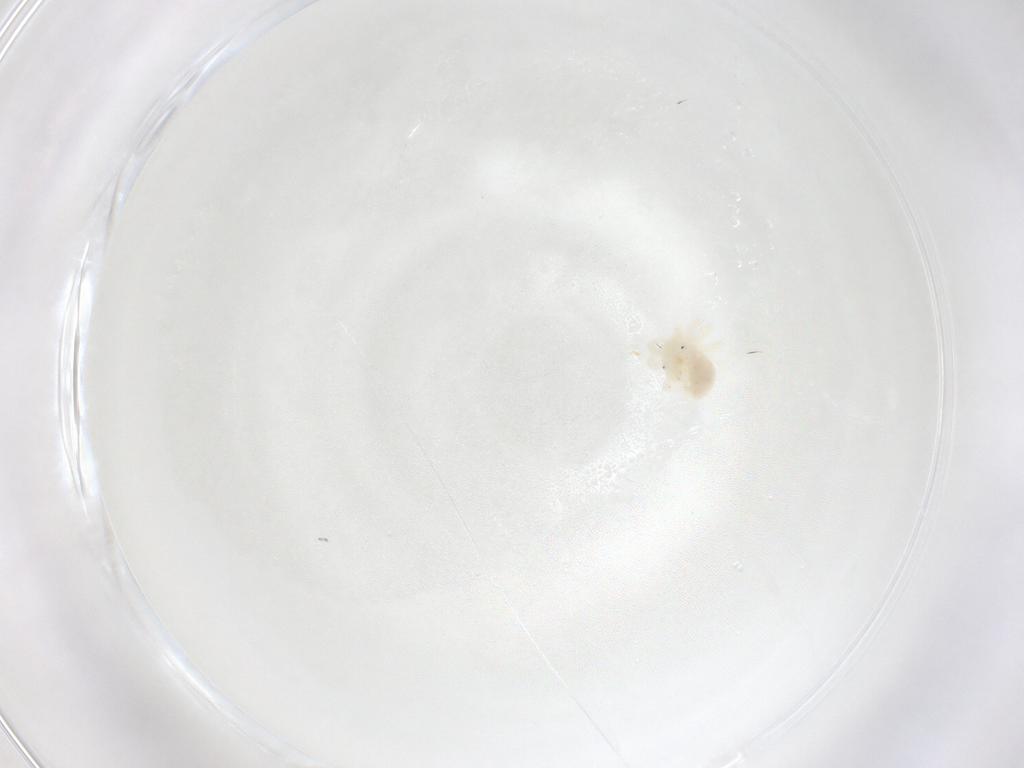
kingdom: Animalia
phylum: Arthropoda
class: Arachnida
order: Trombidiformes
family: Anystidae
